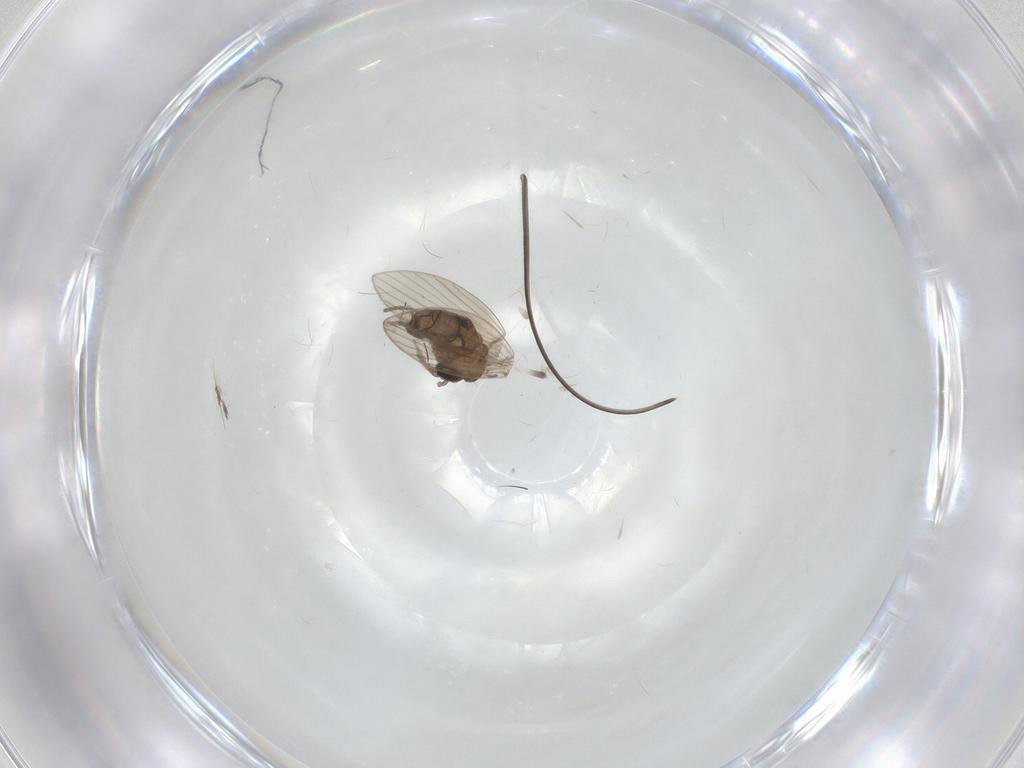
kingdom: Animalia
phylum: Arthropoda
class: Insecta
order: Diptera
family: Psychodidae
